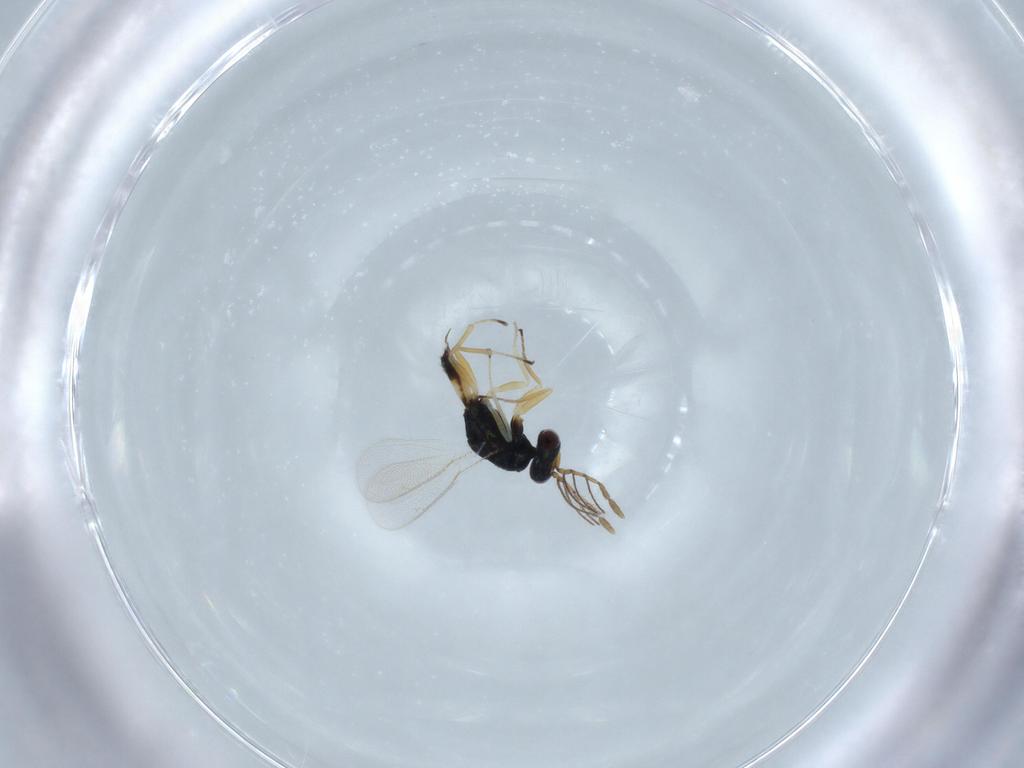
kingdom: Animalia
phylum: Arthropoda
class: Insecta
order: Hymenoptera
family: Eulophidae
